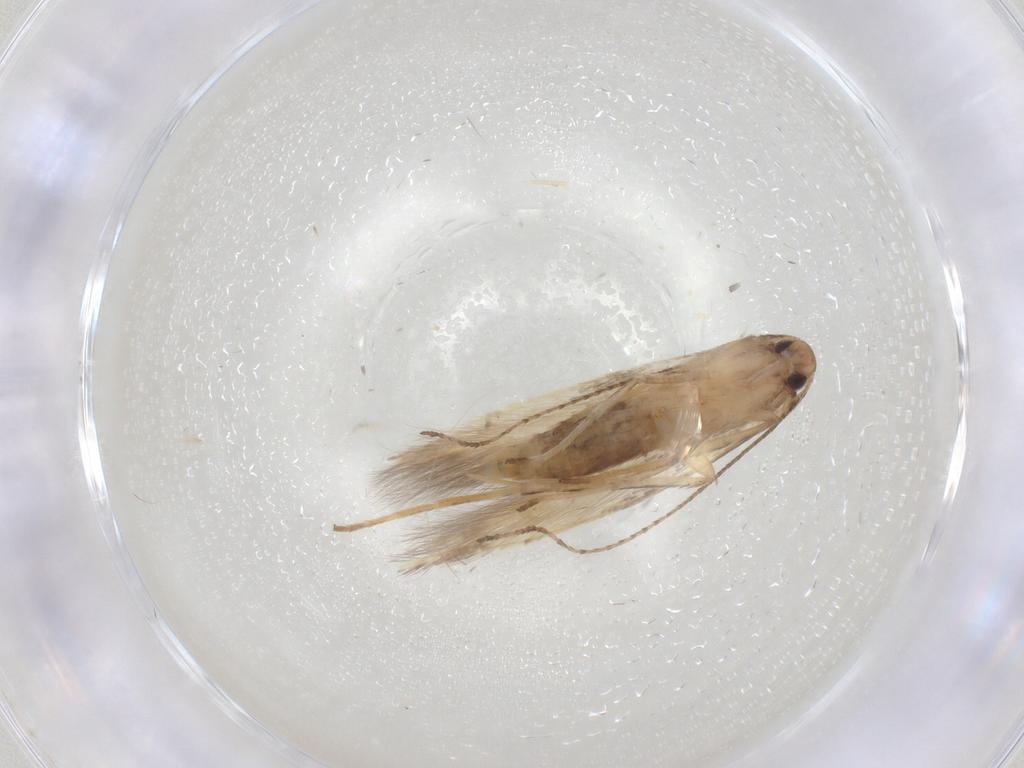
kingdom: Animalia
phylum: Arthropoda
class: Insecta
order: Lepidoptera
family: Cosmopterigidae
